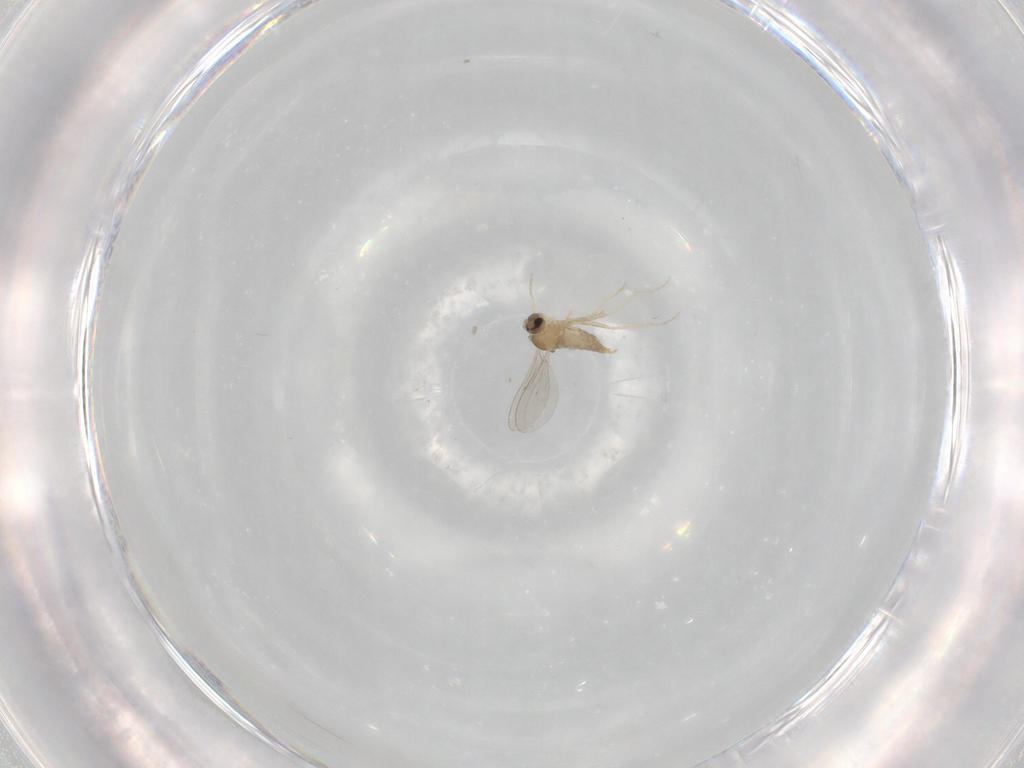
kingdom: Animalia
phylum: Arthropoda
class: Insecta
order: Diptera
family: Cecidomyiidae
